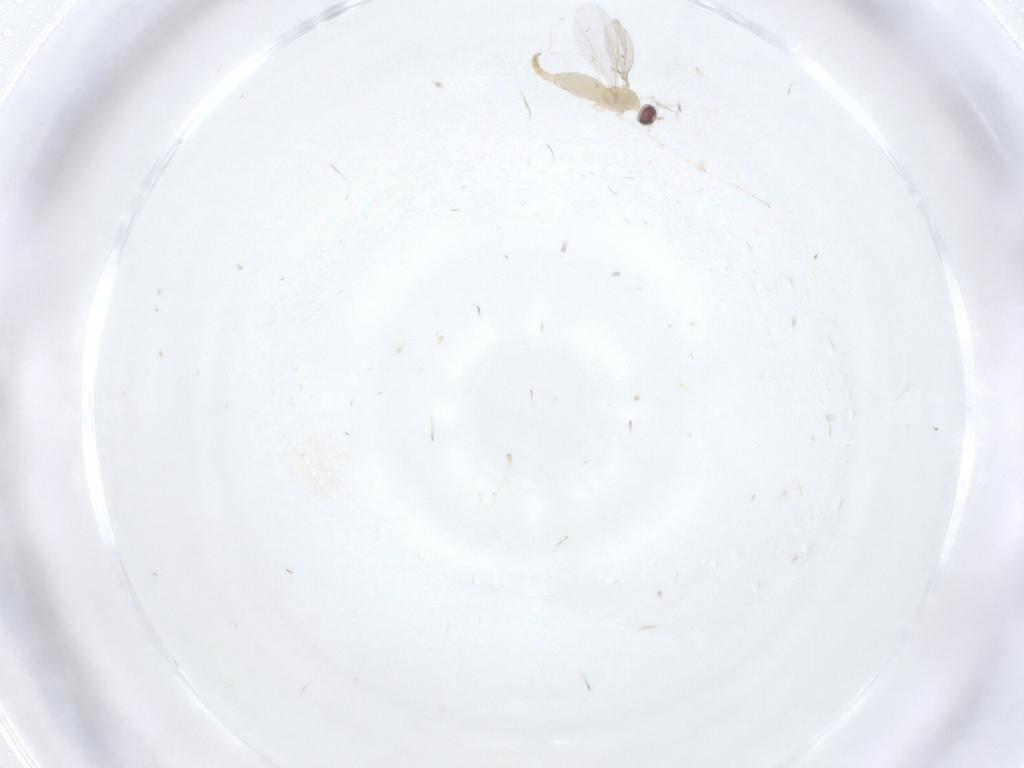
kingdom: Animalia
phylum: Arthropoda
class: Insecta
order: Diptera
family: Cecidomyiidae
